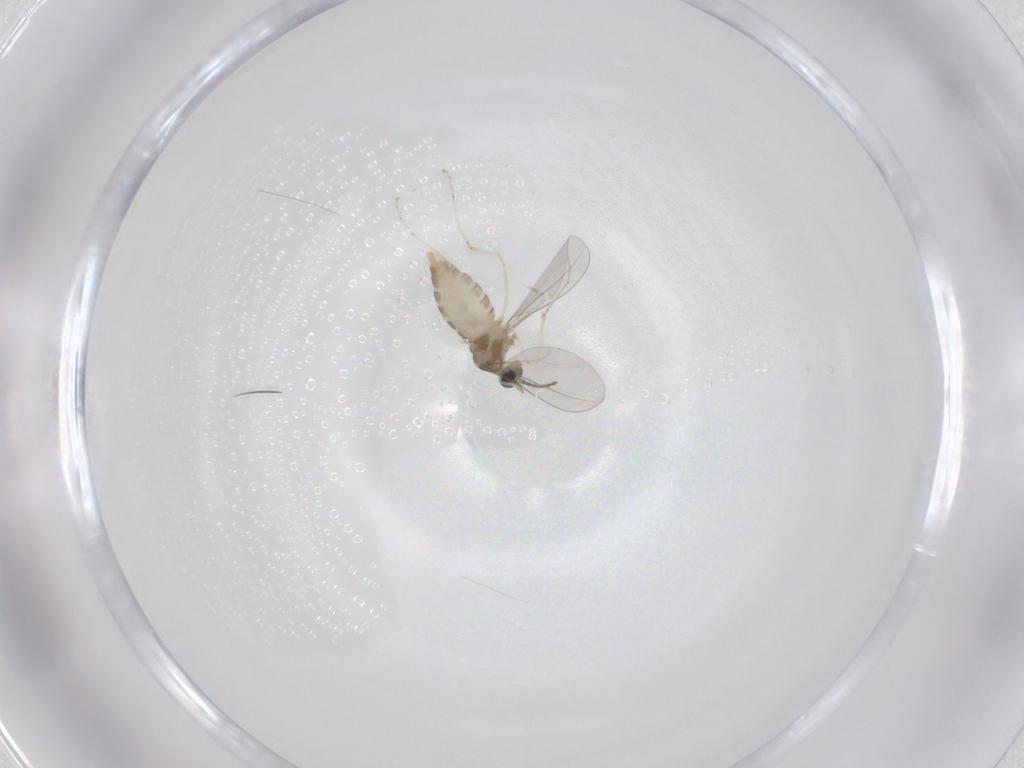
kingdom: Animalia
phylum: Arthropoda
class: Insecta
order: Diptera
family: Cecidomyiidae
